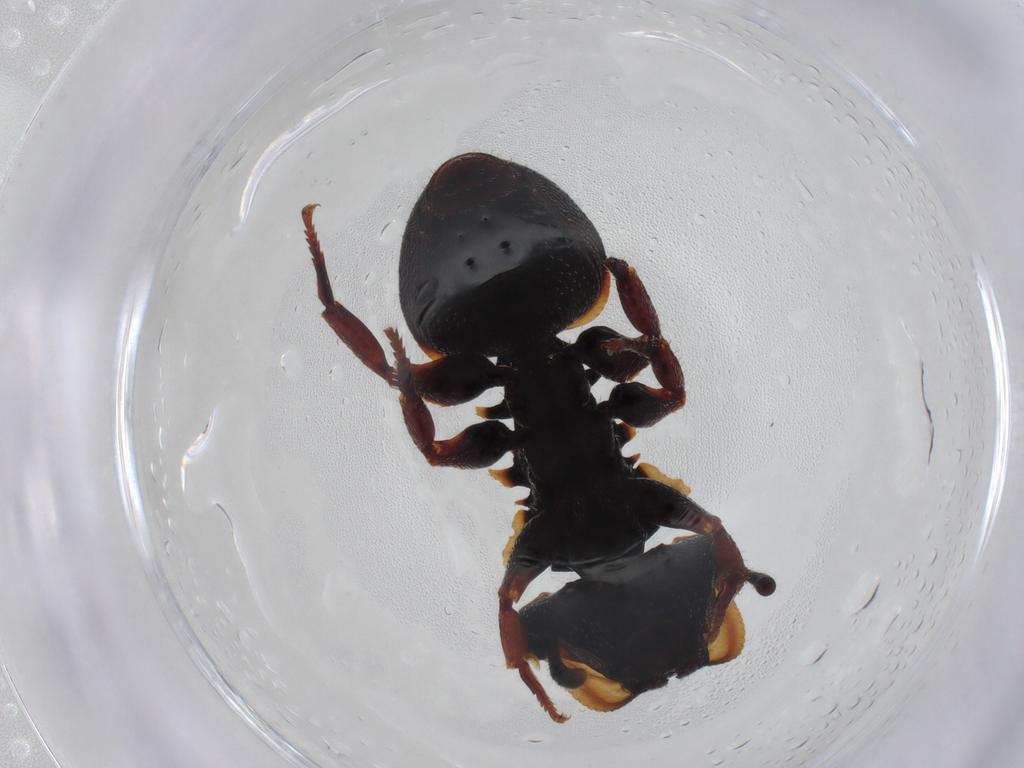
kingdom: Animalia
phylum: Arthropoda
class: Insecta
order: Hymenoptera
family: Formicidae
